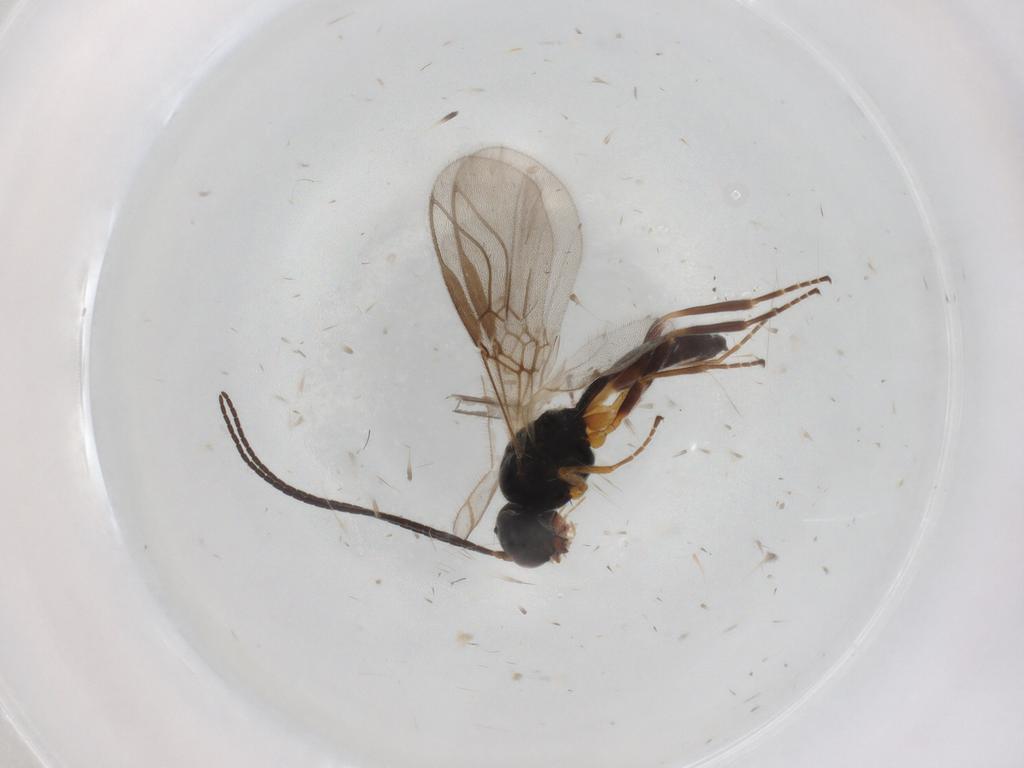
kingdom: Animalia
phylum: Arthropoda
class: Insecta
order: Hymenoptera
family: Braconidae
